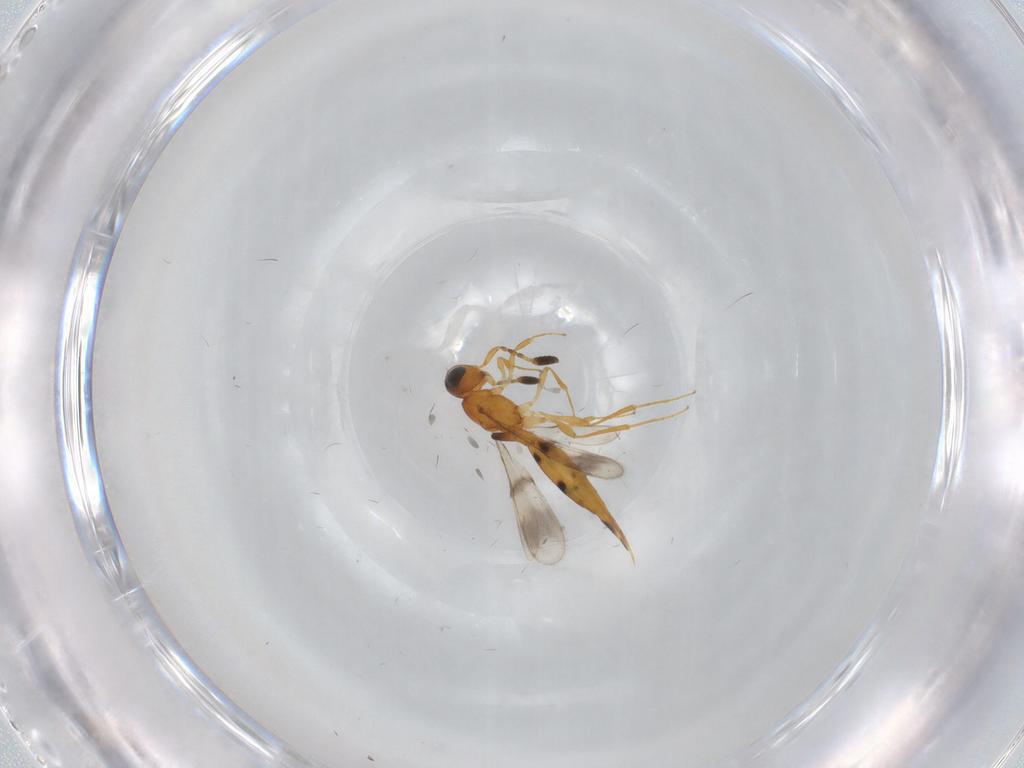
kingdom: Animalia
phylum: Arthropoda
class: Insecta
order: Hymenoptera
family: Scelionidae
